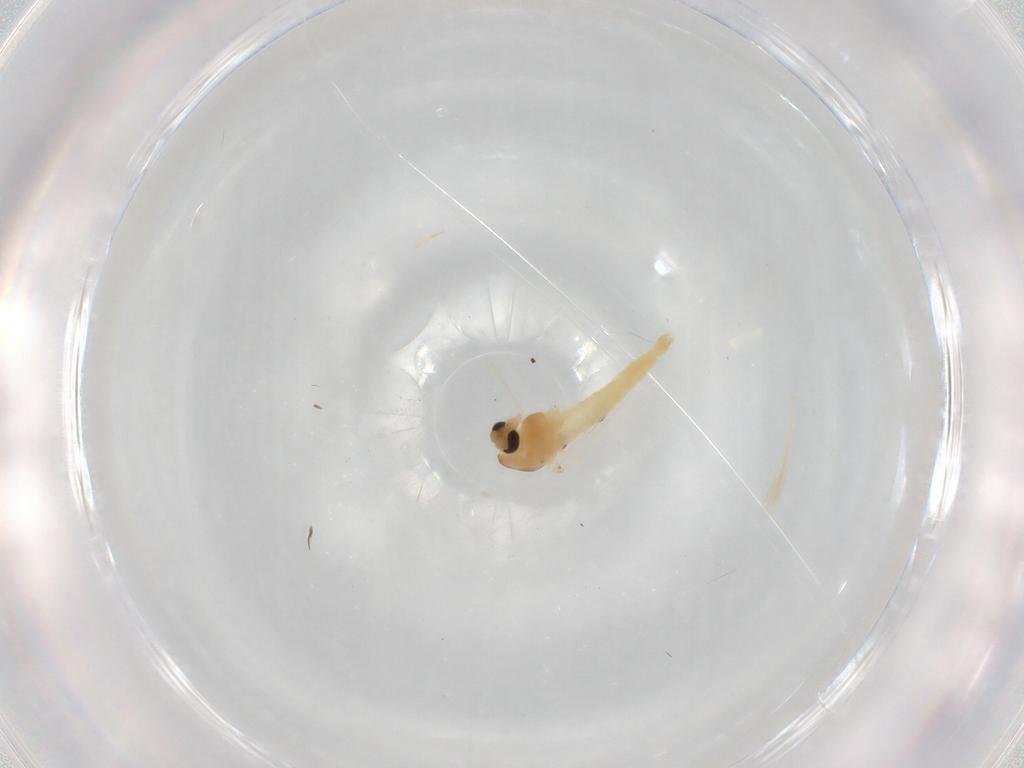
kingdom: Animalia
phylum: Arthropoda
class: Insecta
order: Diptera
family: Chironomidae
